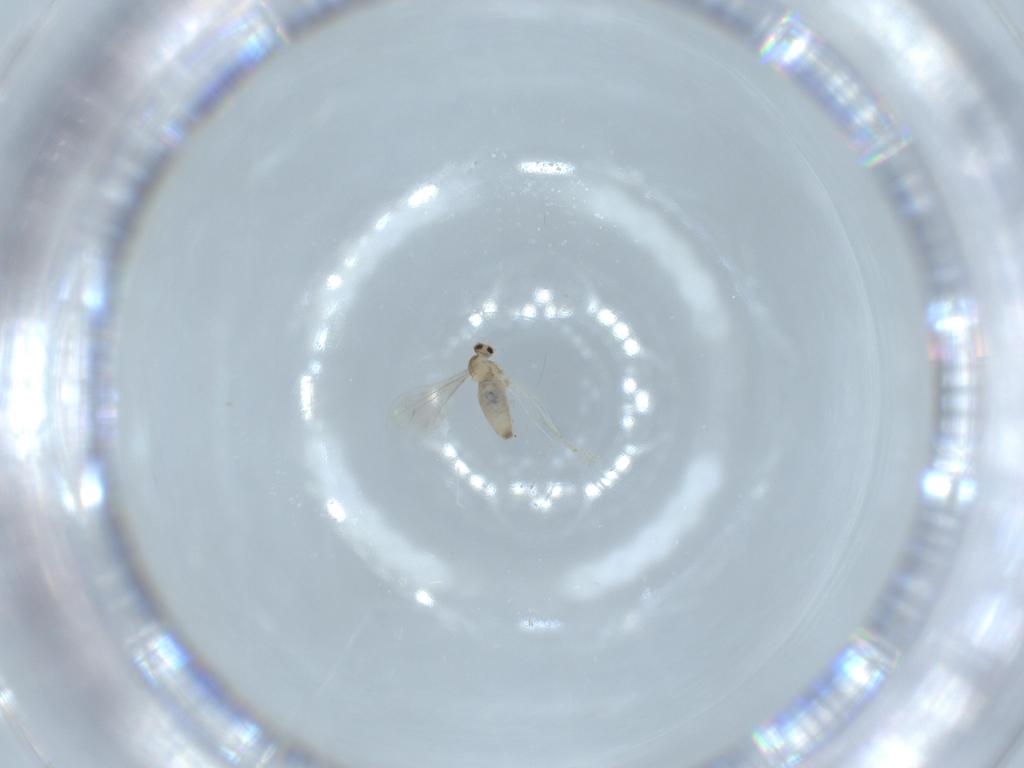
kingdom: Animalia
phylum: Arthropoda
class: Insecta
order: Diptera
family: Cecidomyiidae
